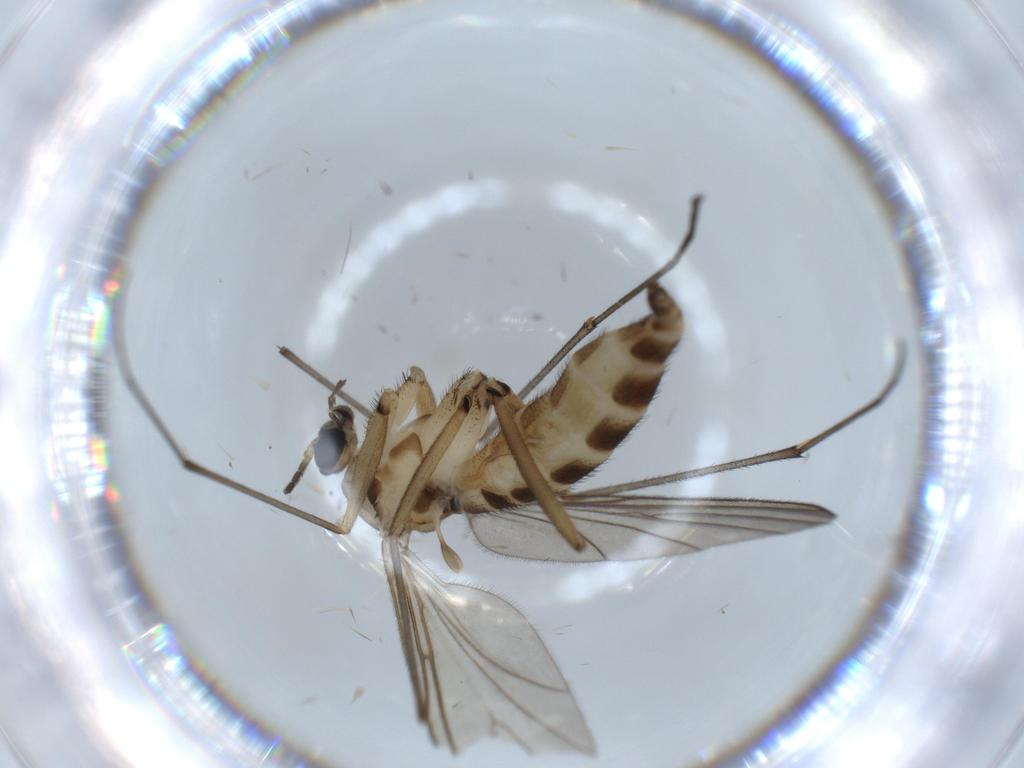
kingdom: Animalia
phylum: Arthropoda
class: Insecta
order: Diptera
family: Sciaridae
